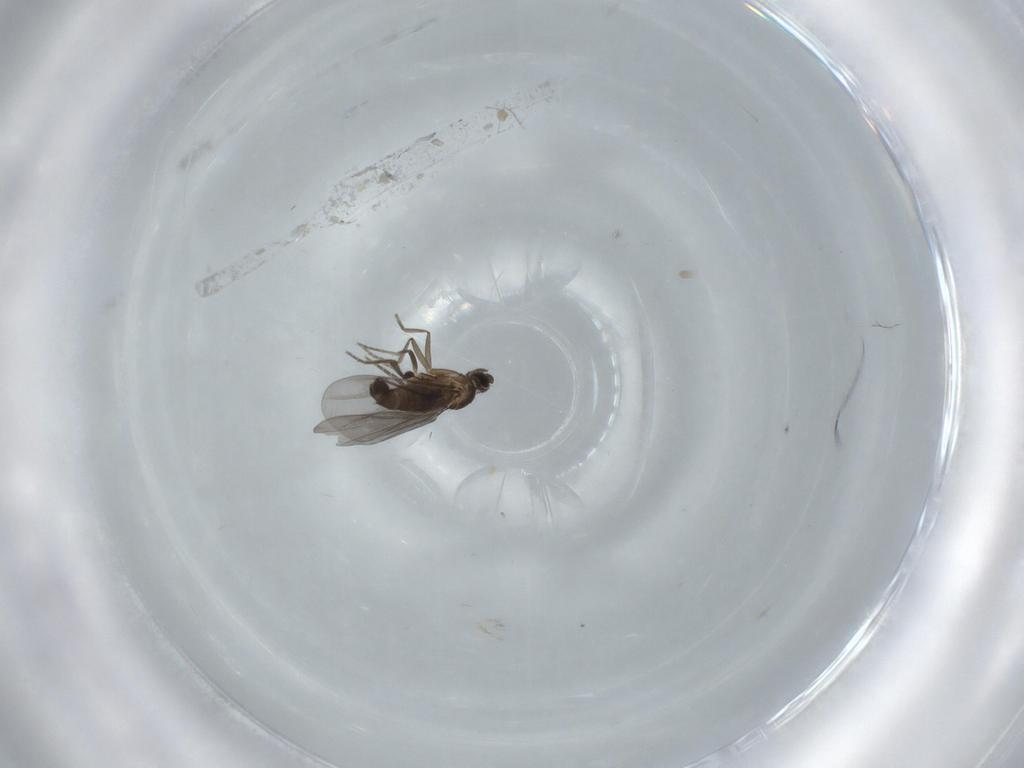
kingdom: Animalia
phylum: Arthropoda
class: Insecta
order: Diptera
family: Phoridae
